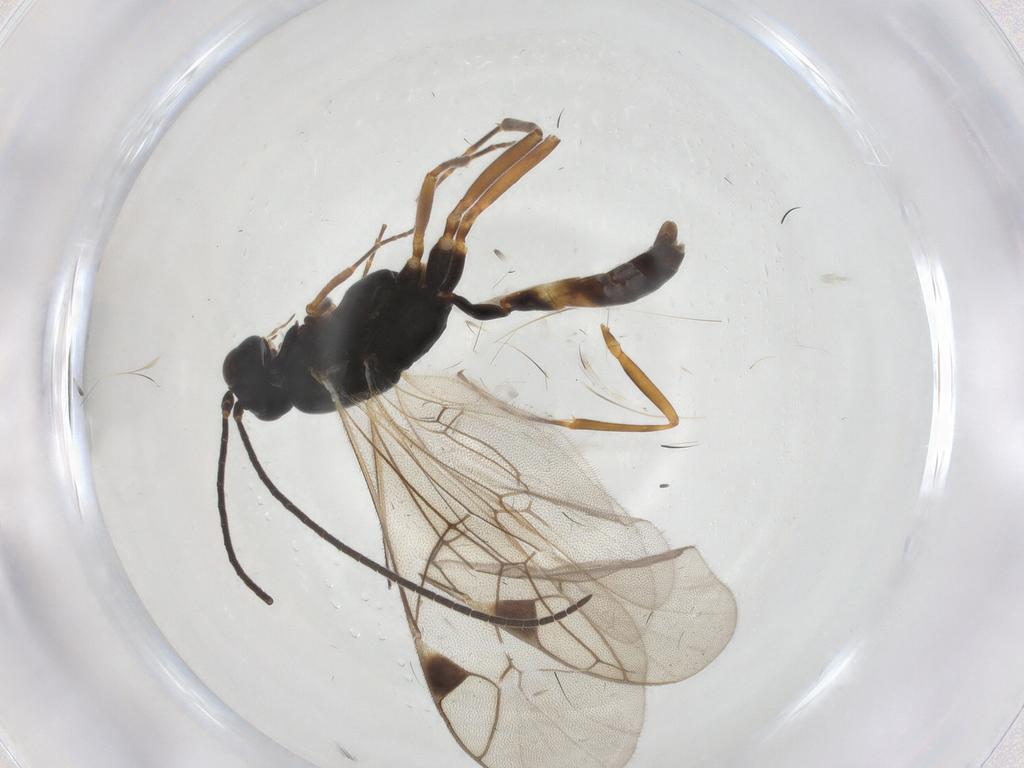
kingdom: Animalia
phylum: Arthropoda
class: Insecta
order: Hymenoptera
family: Ichneumonidae
